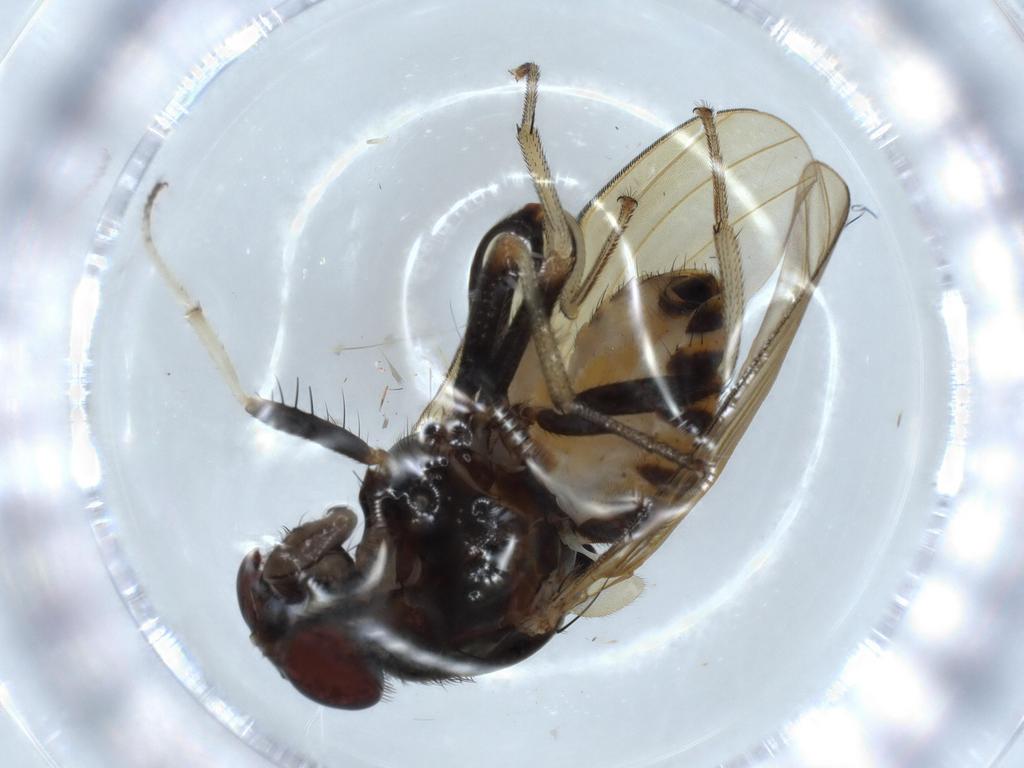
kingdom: Animalia
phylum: Arthropoda
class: Insecta
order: Diptera
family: Lauxaniidae
